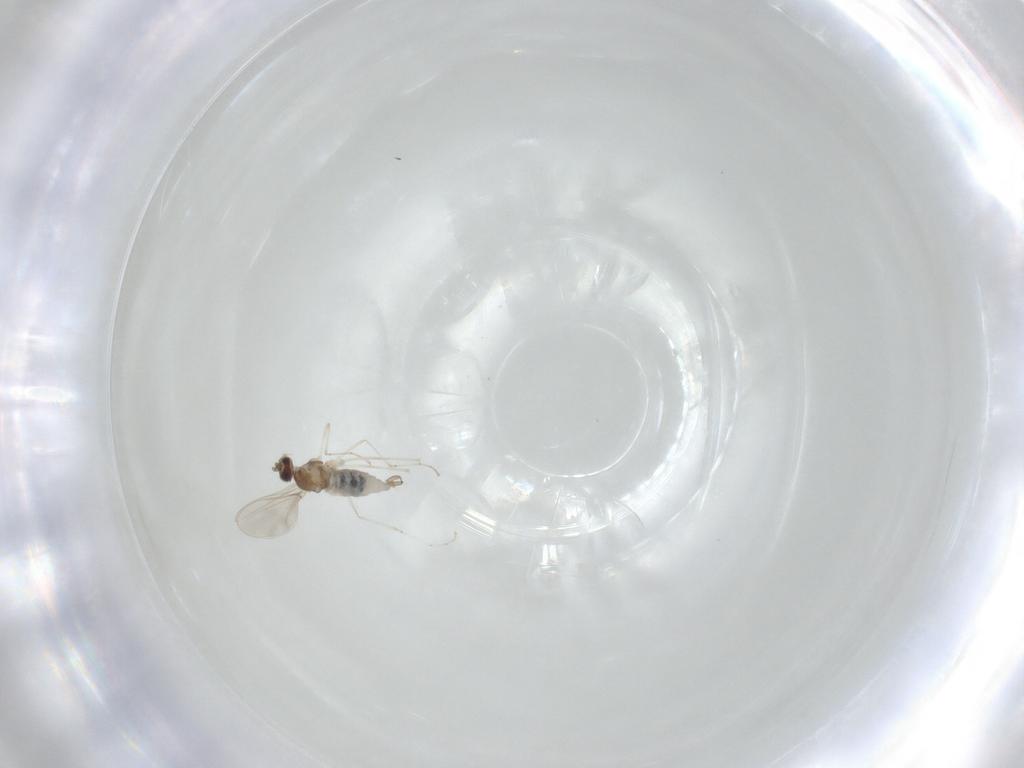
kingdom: Animalia
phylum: Arthropoda
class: Insecta
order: Diptera
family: Cecidomyiidae
